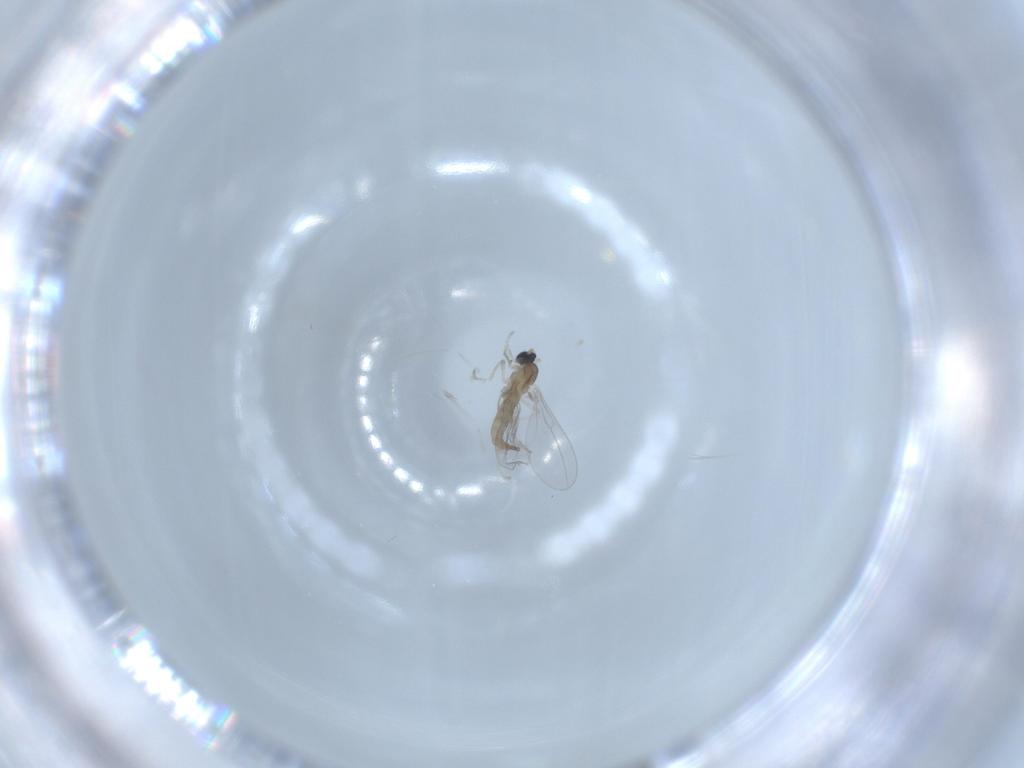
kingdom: Animalia
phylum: Arthropoda
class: Insecta
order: Diptera
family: Cecidomyiidae
